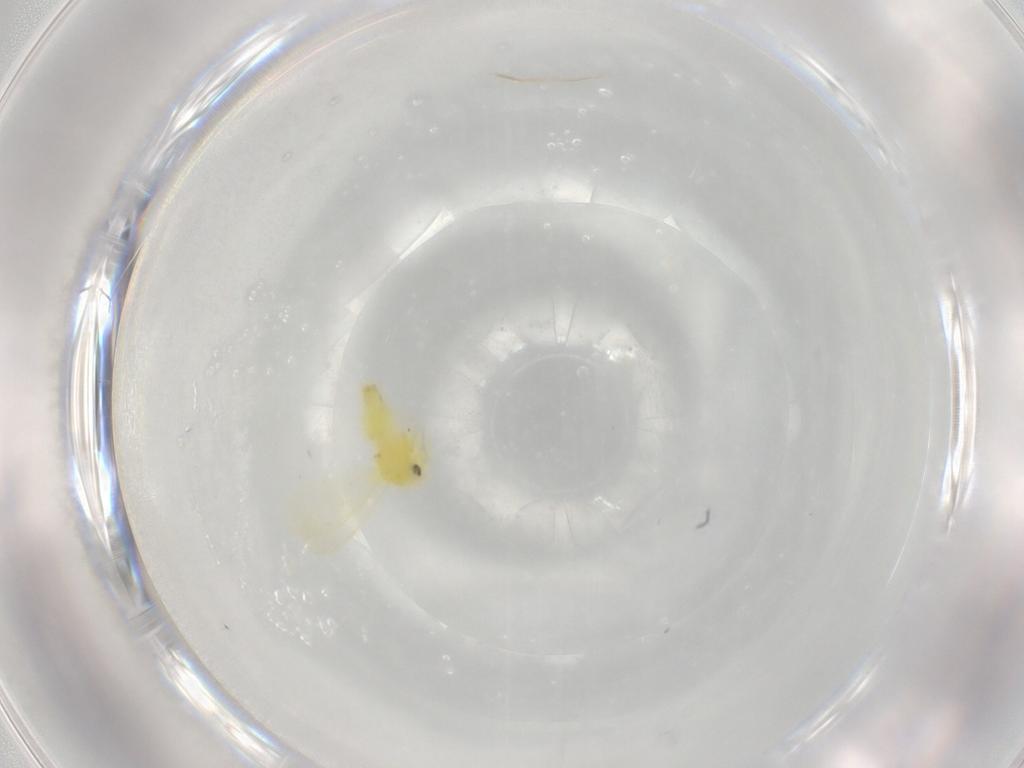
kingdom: Animalia
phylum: Arthropoda
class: Insecta
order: Hemiptera
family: Aleyrodidae
